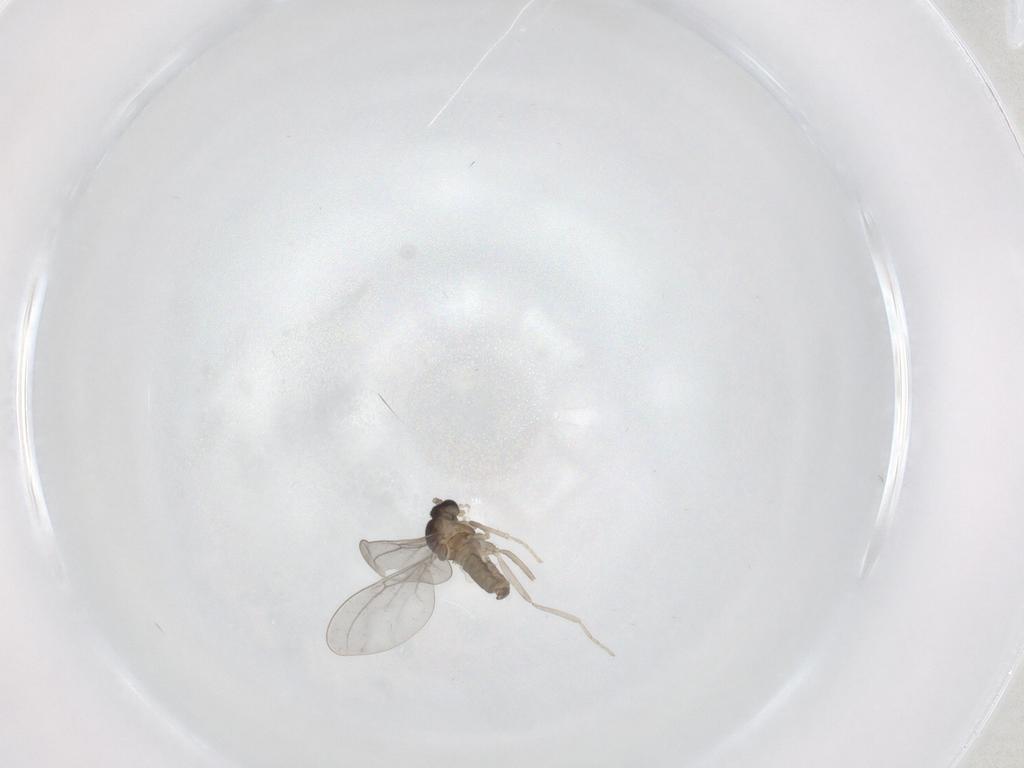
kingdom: Animalia
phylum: Arthropoda
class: Insecta
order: Diptera
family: Cecidomyiidae
